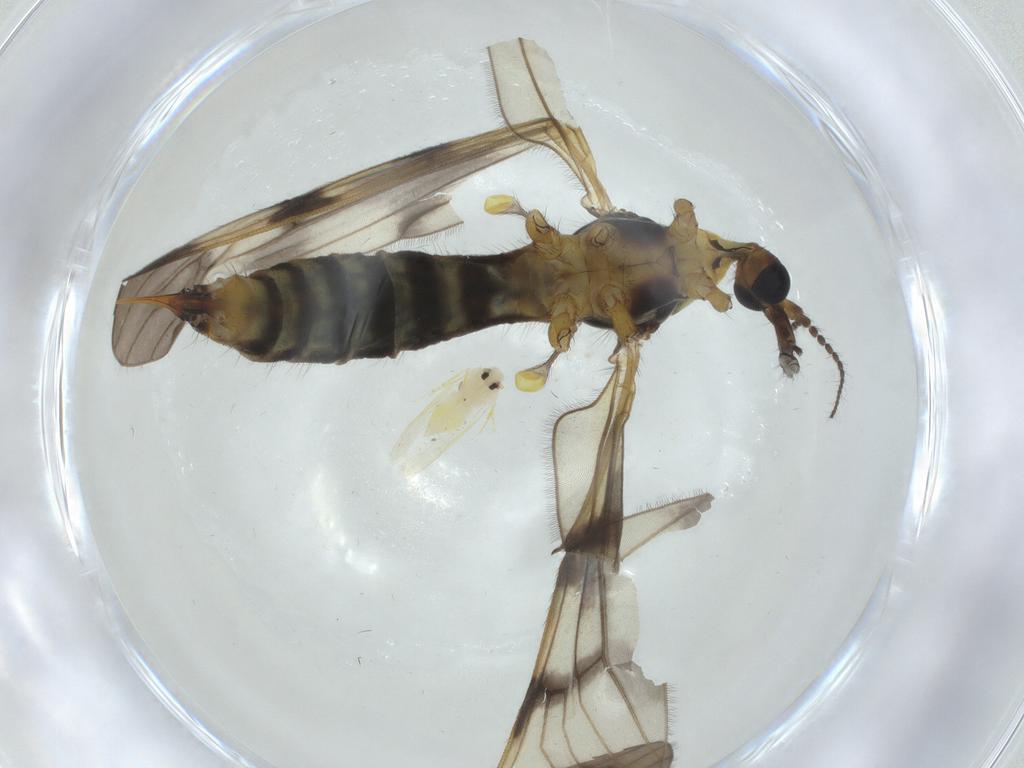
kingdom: Animalia
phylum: Arthropoda
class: Insecta
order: Diptera
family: Limoniidae
